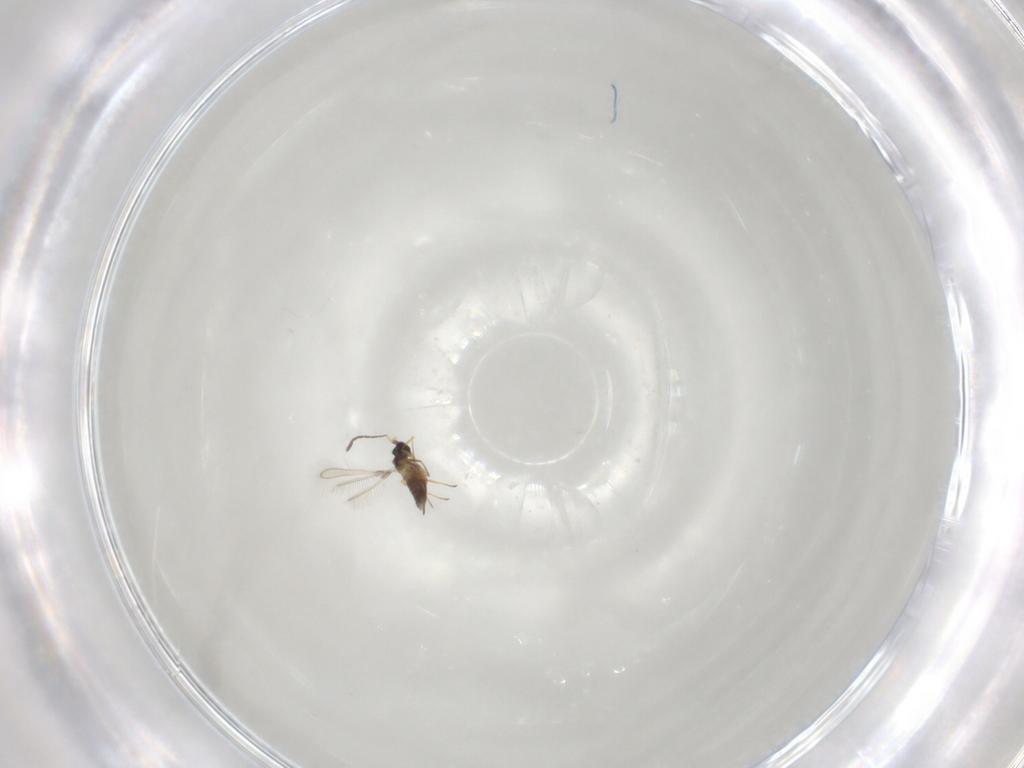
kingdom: Animalia
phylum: Arthropoda
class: Insecta
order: Hymenoptera
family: Mymaridae
